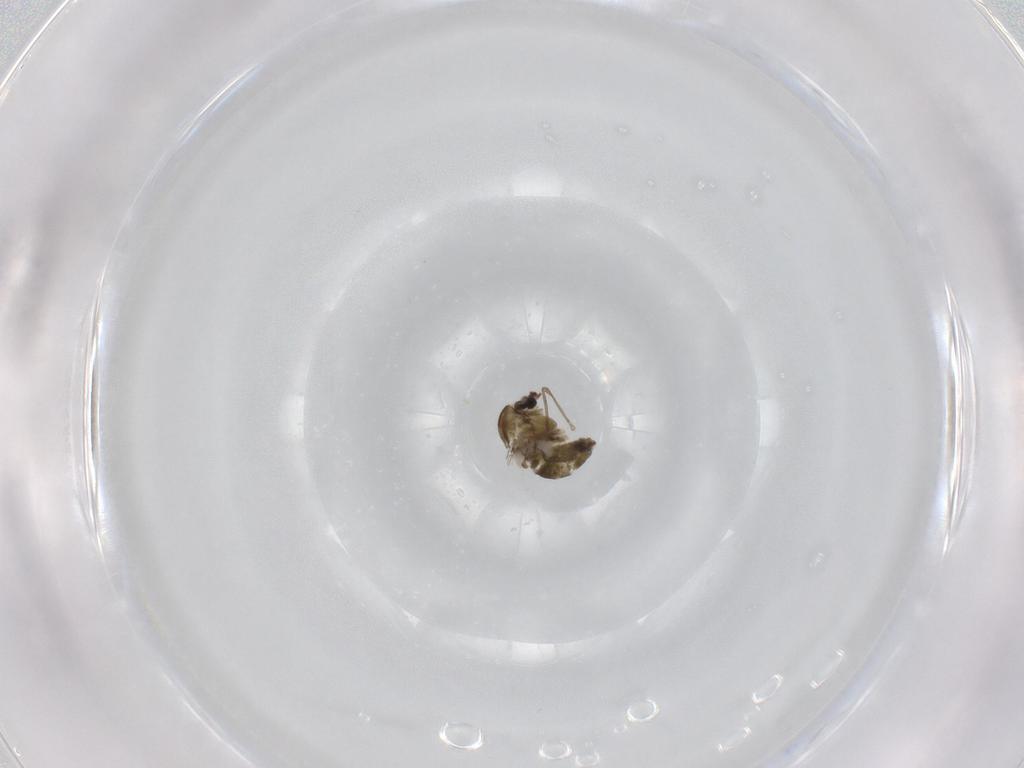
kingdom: Animalia
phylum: Arthropoda
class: Insecta
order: Diptera
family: Ceratopogonidae
